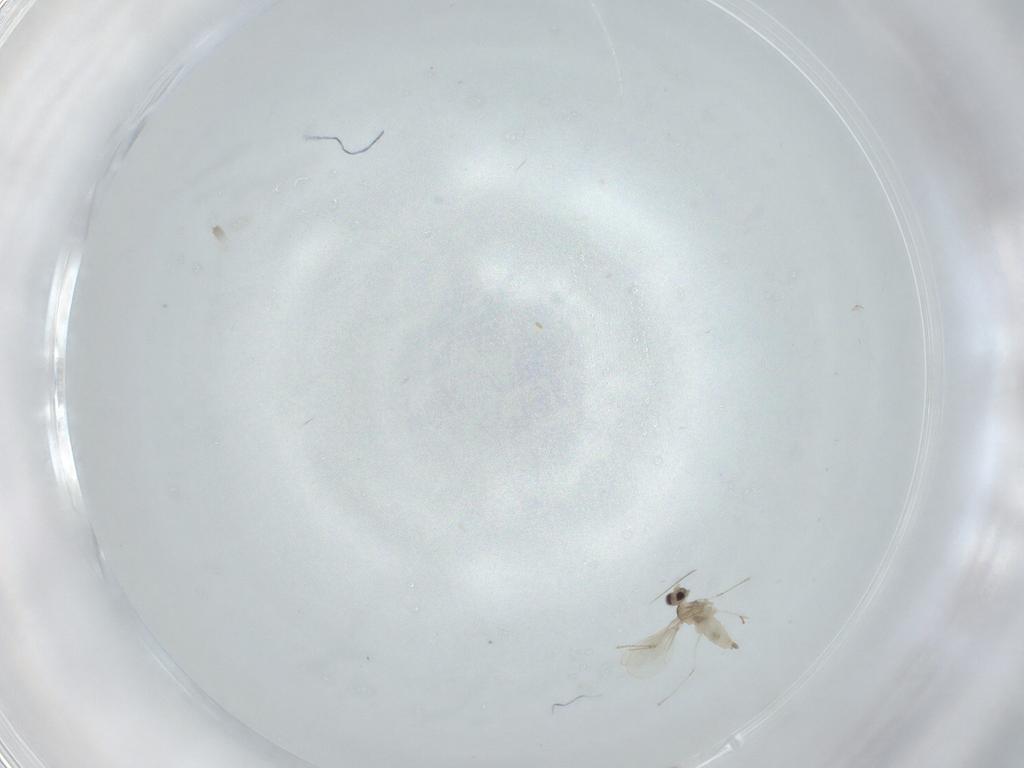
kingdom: Animalia
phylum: Arthropoda
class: Insecta
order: Diptera
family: Cecidomyiidae
